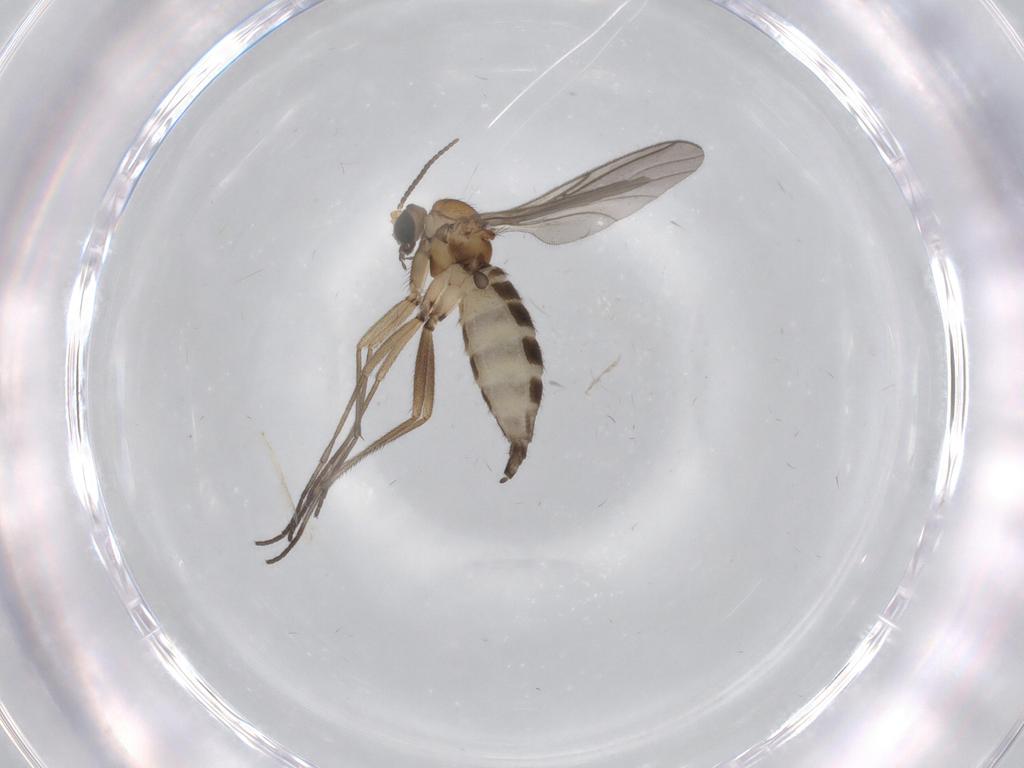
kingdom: Animalia
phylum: Arthropoda
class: Insecta
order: Diptera
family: Sciaridae
